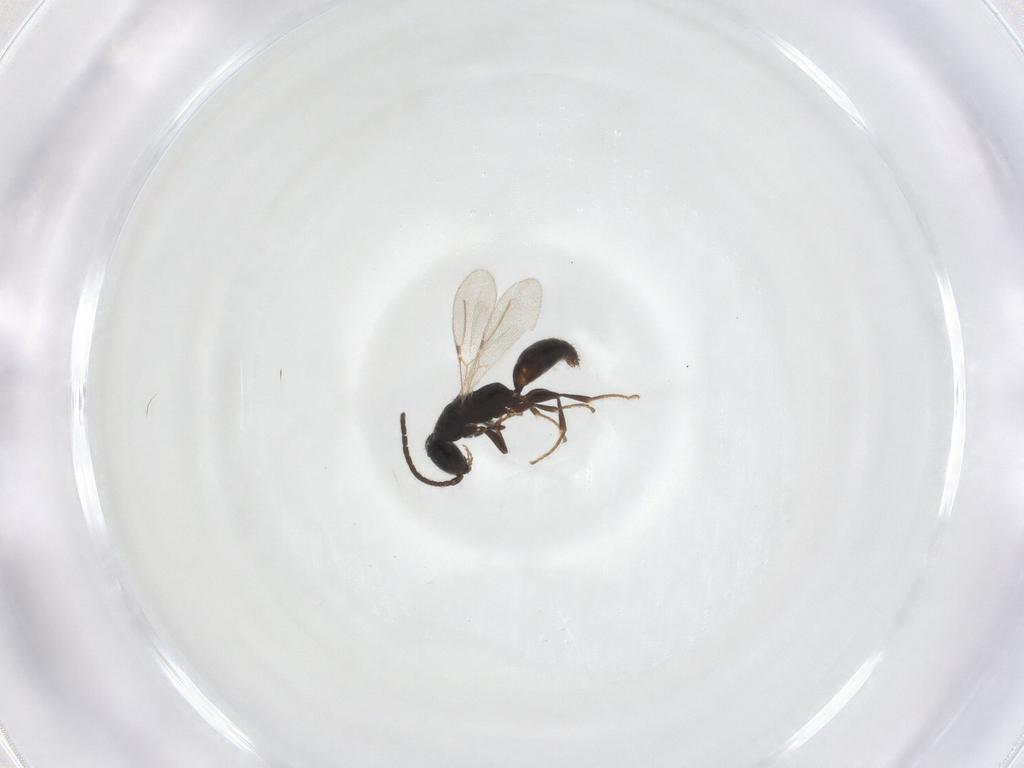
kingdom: Animalia
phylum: Arthropoda
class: Insecta
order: Hymenoptera
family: Bethylidae
